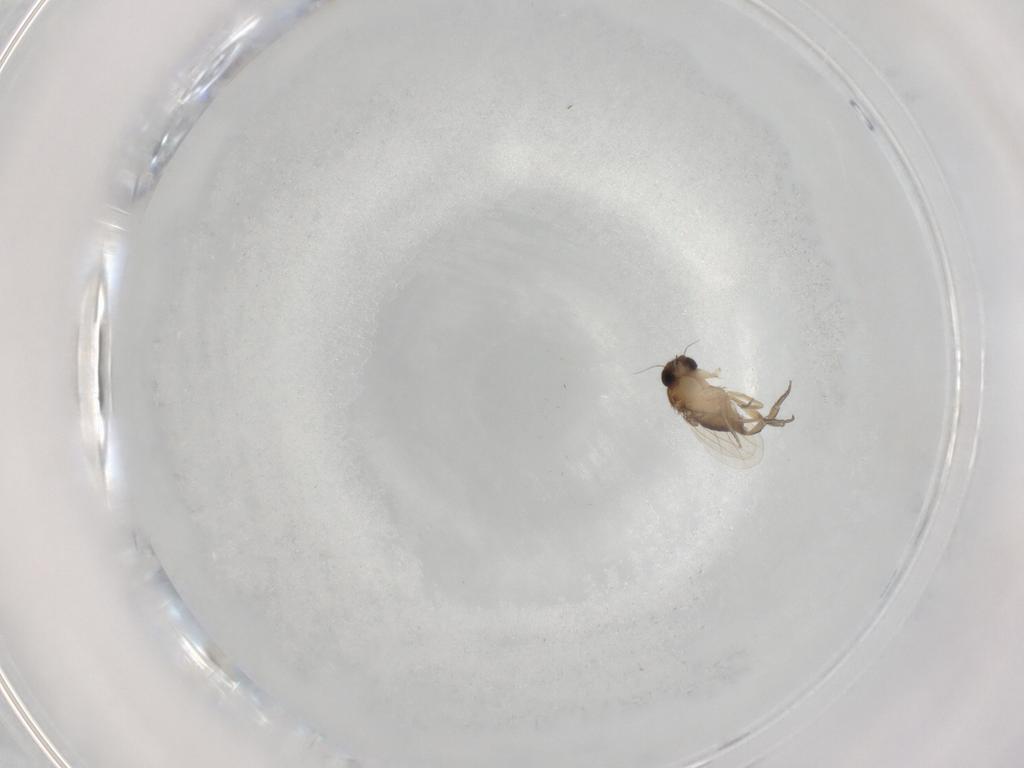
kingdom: Animalia
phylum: Arthropoda
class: Insecta
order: Diptera
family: Phoridae
